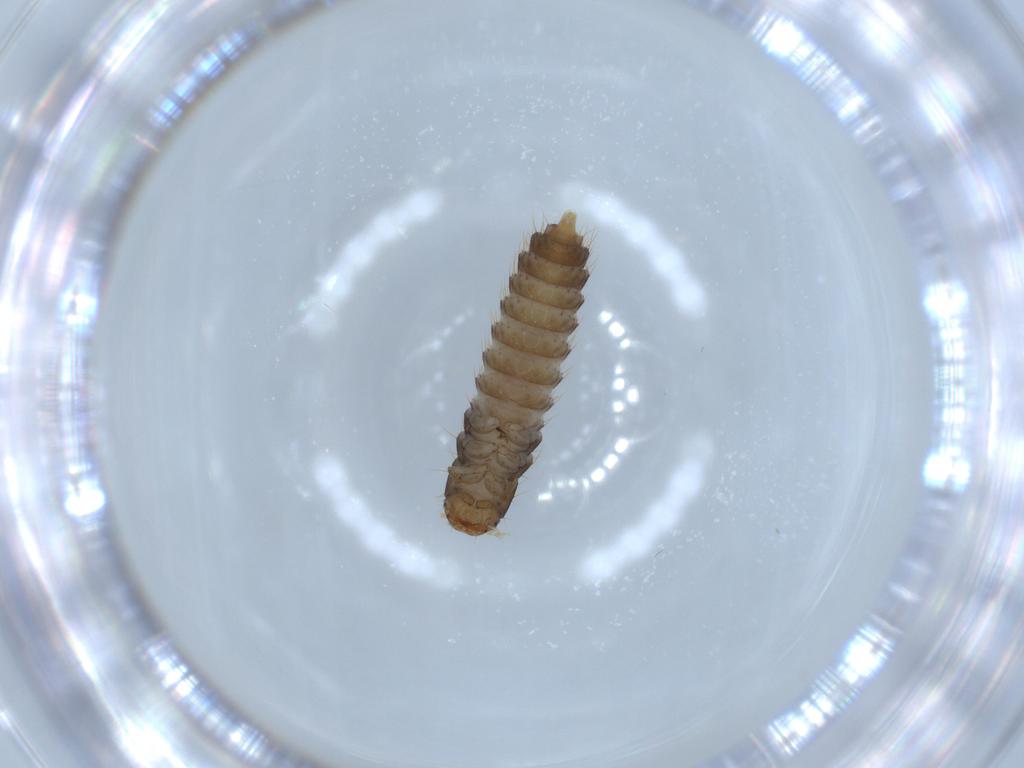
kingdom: Animalia
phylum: Arthropoda
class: Insecta
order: Coleoptera
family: Staphylinidae
